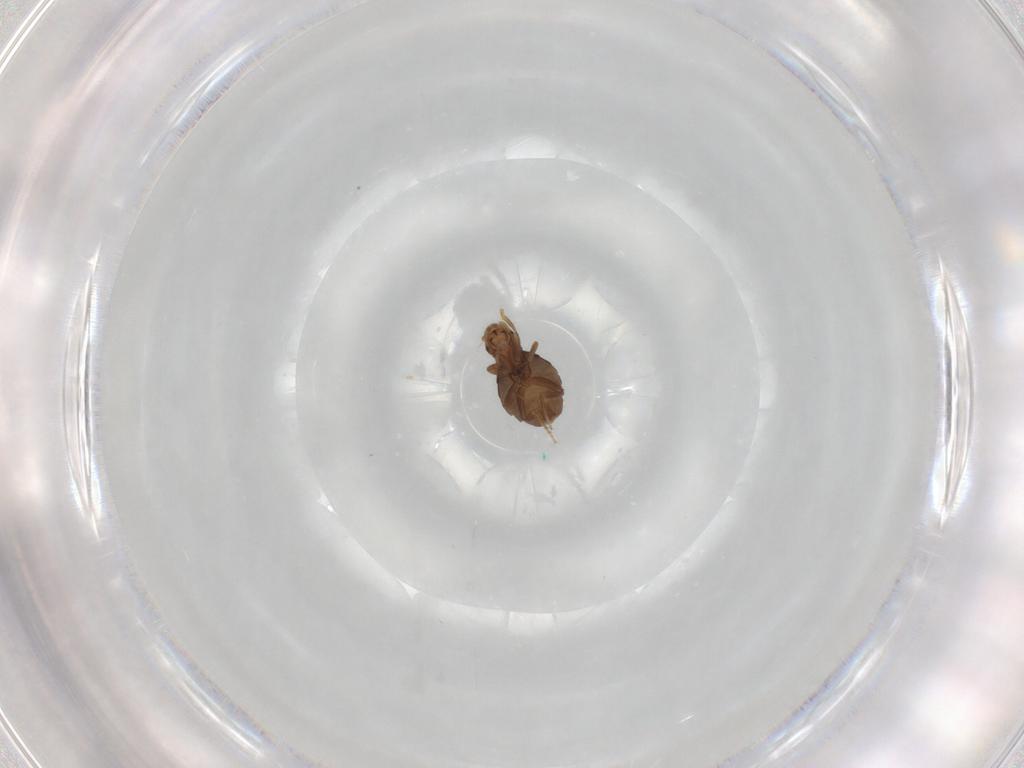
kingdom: Animalia
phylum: Arthropoda
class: Insecta
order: Diptera
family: Phoridae
